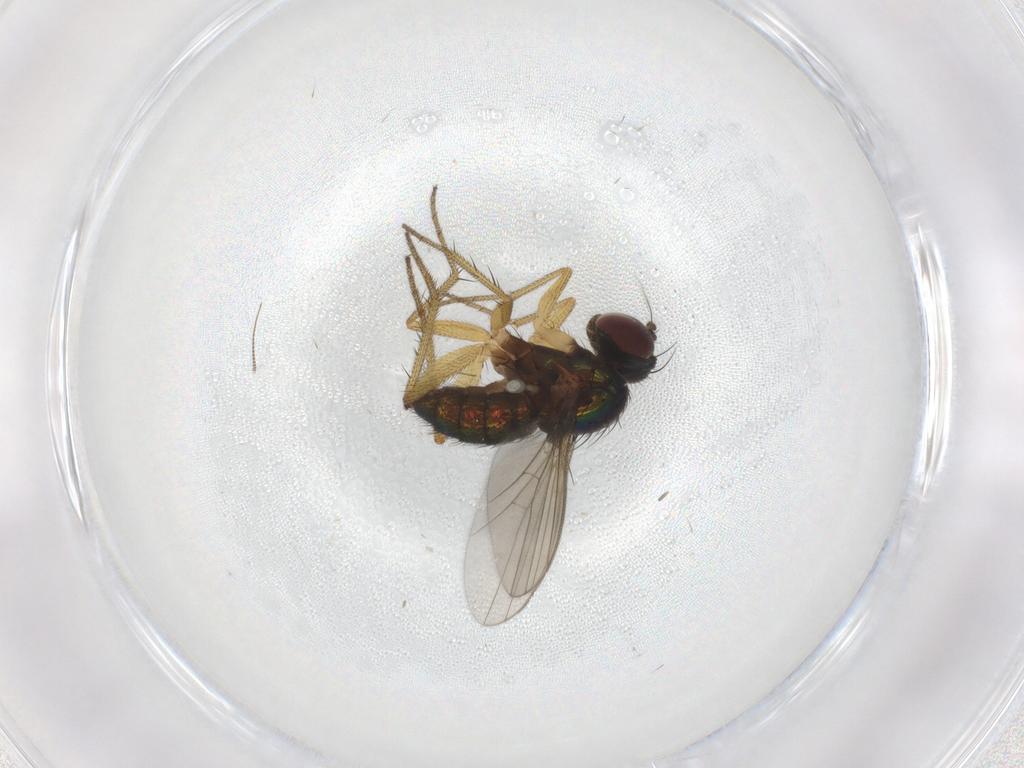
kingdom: Animalia
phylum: Arthropoda
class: Insecta
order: Diptera
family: Dolichopodidae
